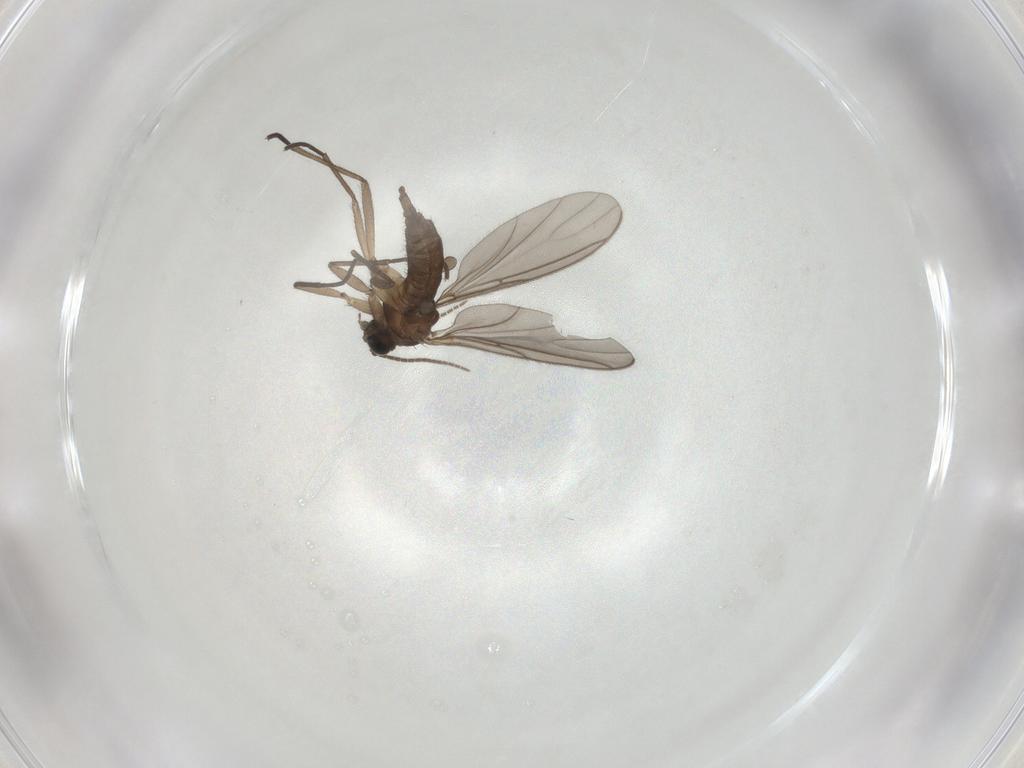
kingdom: Animalia
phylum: Arthropoda
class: Insecta
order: Diptera
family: Sciaridae
